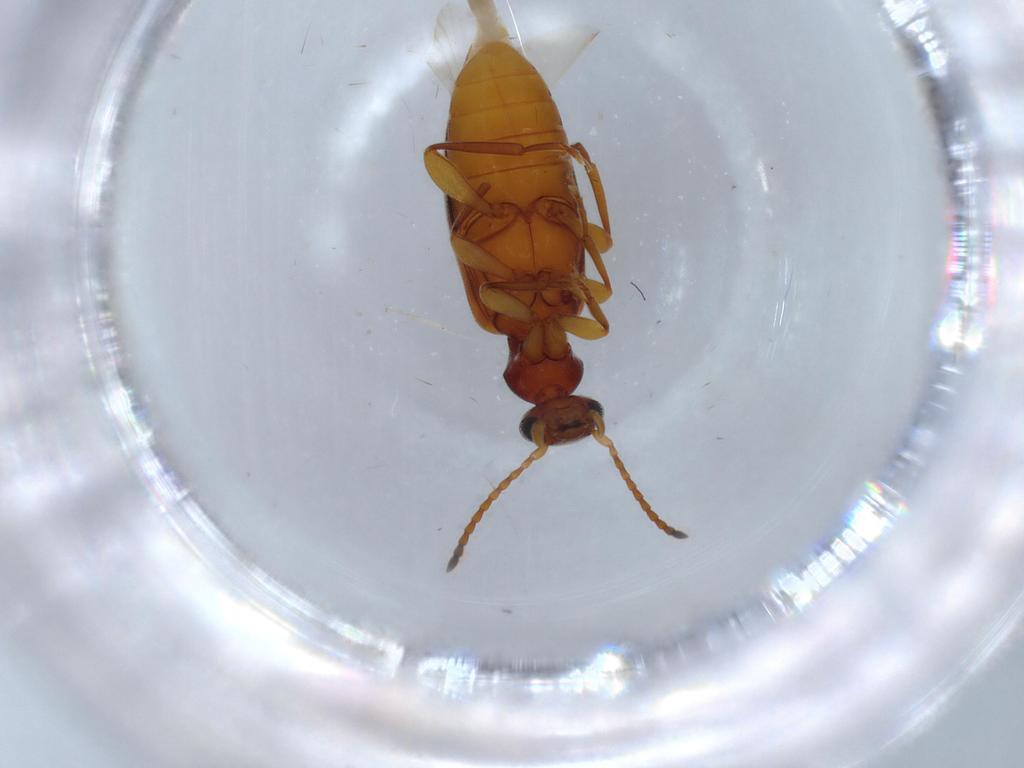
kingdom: Animalia
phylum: Arthropoda
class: Insecta
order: Coleoptera
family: Anthicidae
